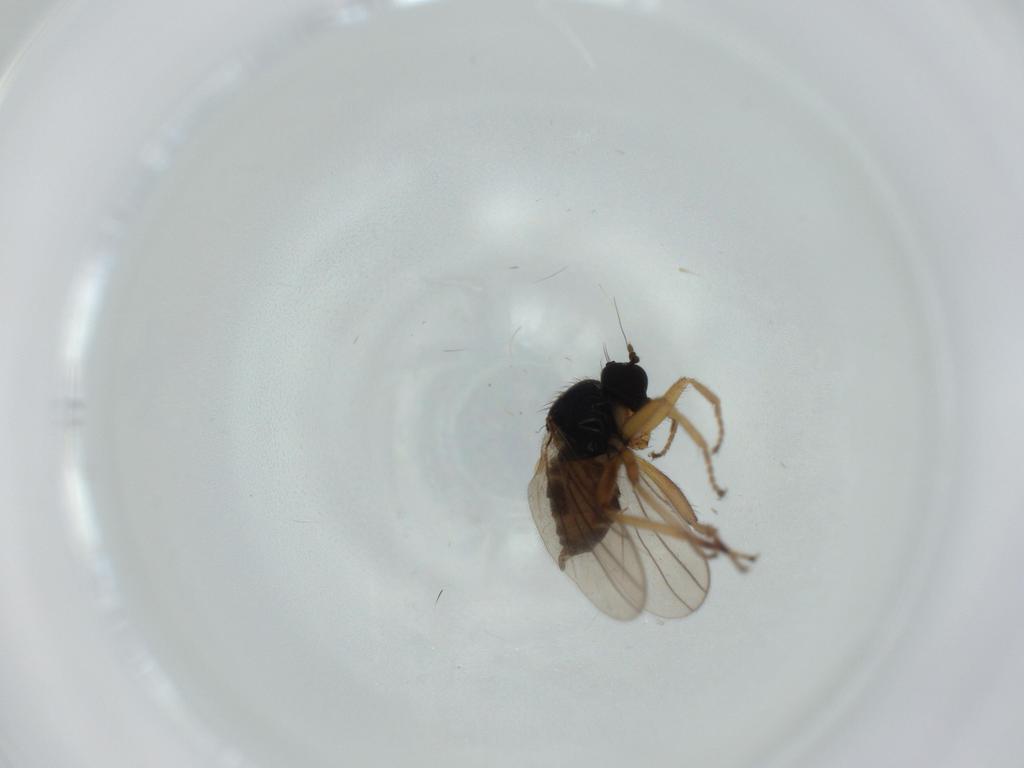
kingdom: Animalia
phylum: Arthropoda
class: Insecta
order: Diptera
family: Hybotidae
